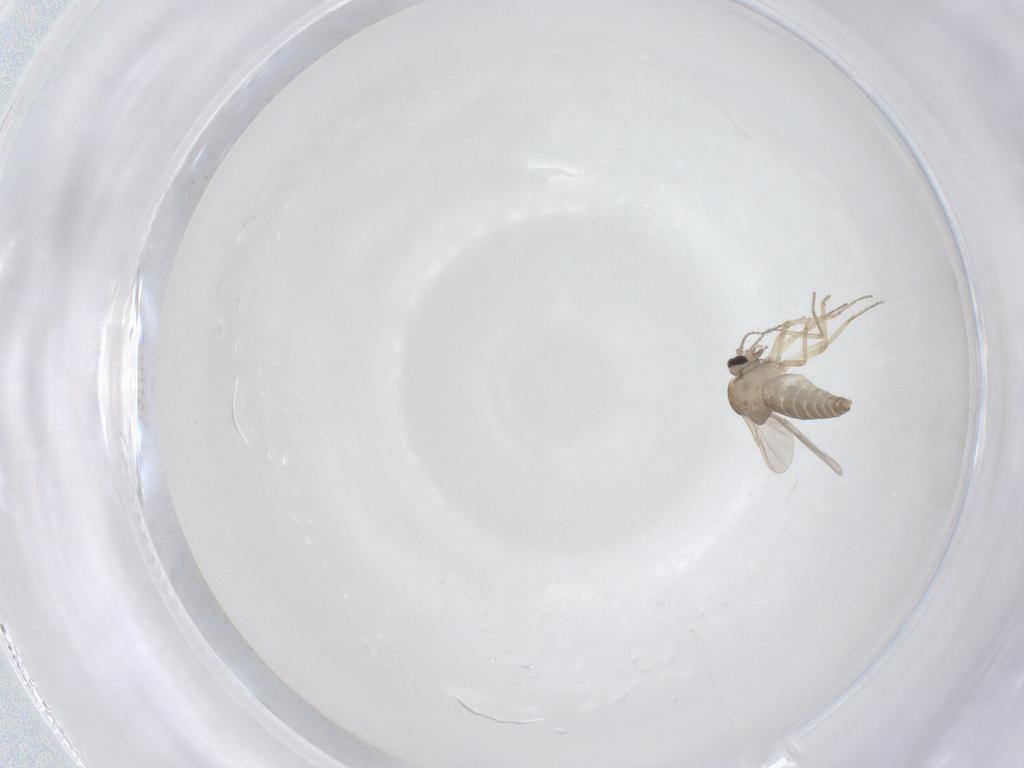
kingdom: Animalia
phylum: Arthropoda
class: Insecta
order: Diptera
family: Ceratopogonidae
